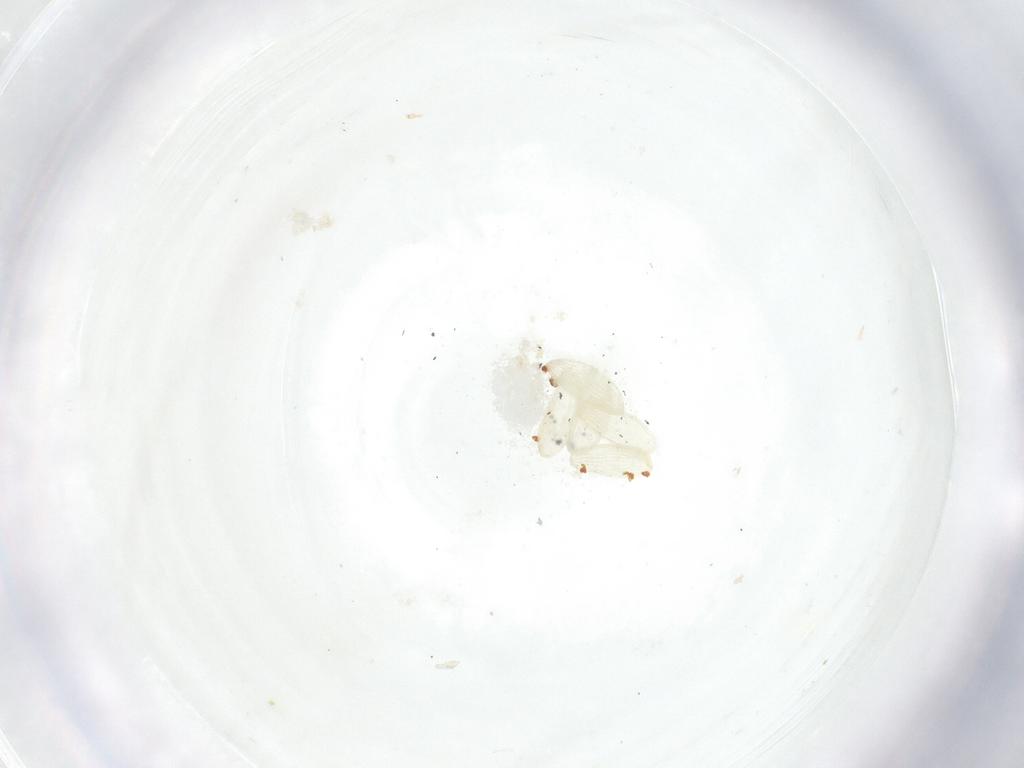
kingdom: Animalia
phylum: Arthropoda
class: Insecta
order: Diptera
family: Fergusoninidae
